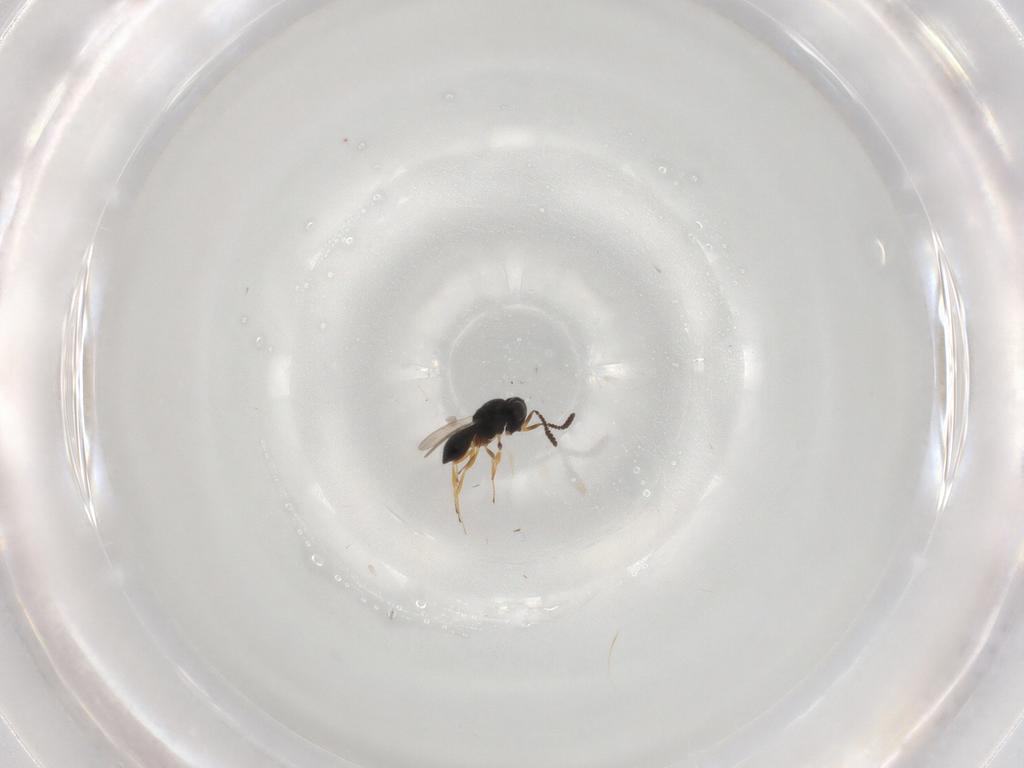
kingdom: Animalia
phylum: Arthropoda
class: Insecta
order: Hymenoptera
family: Scelionidae
